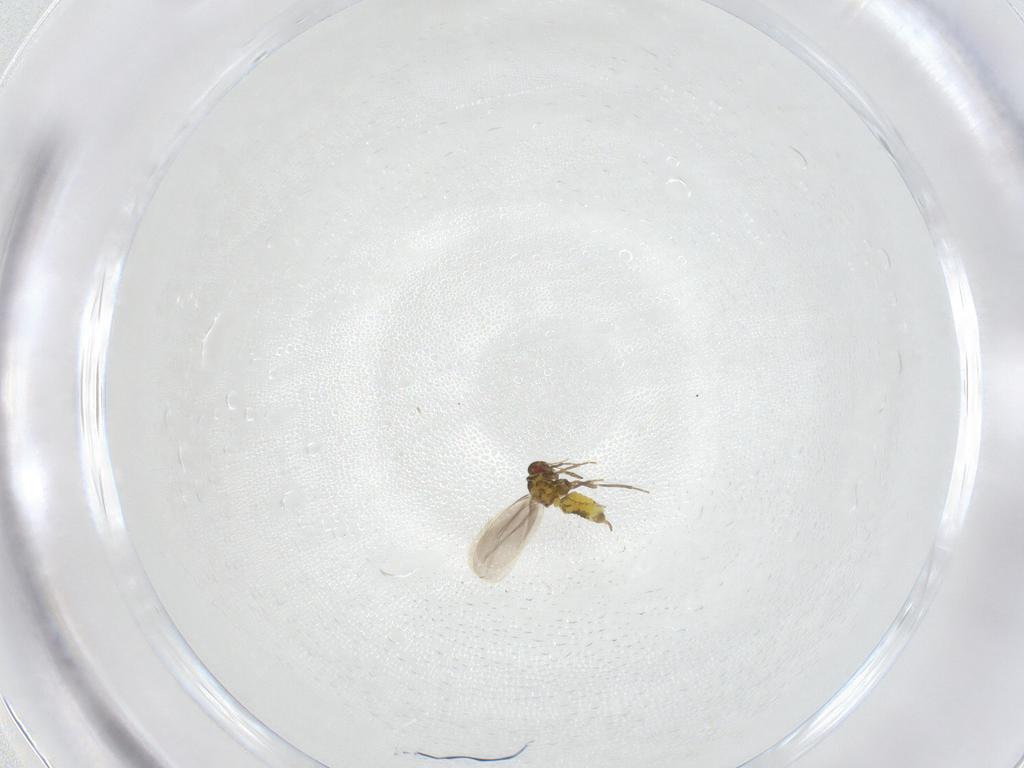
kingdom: Animalia
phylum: Arthropoda
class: Insecta
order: Hemiptera
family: Aleyrodidae
